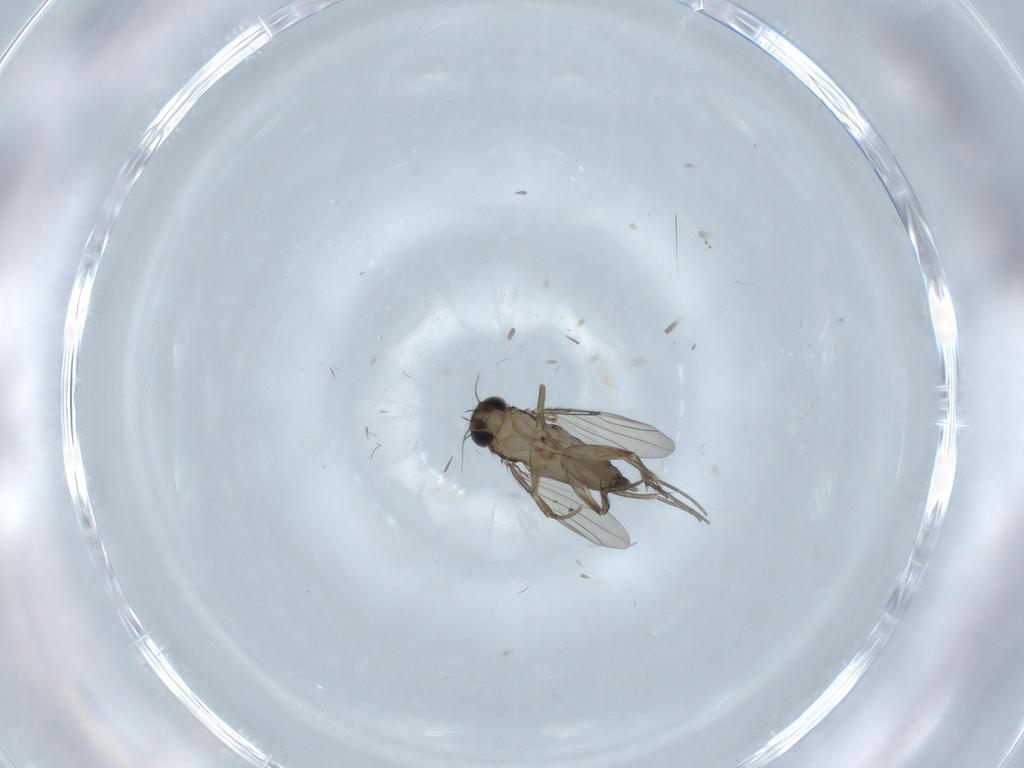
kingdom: Animalia
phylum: Arthropoda
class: Insecta
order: Diptera
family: Phoridae
